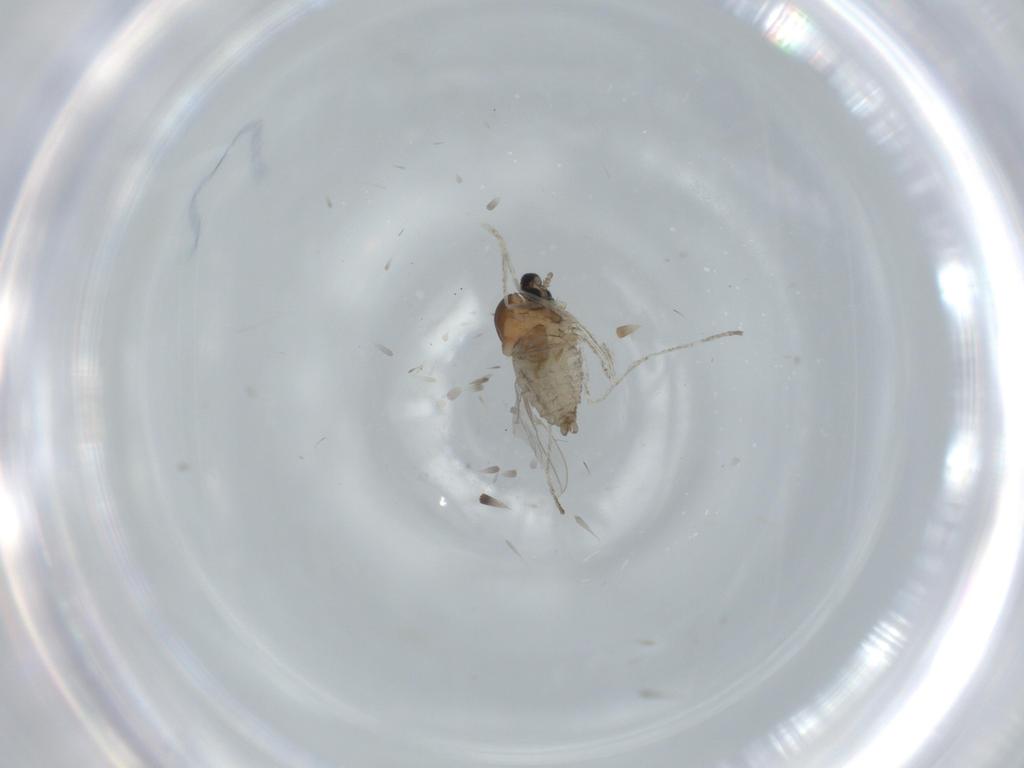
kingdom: Animalia
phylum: Arthropoda
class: Insecta
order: Diptera
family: Cecidomyiidae
